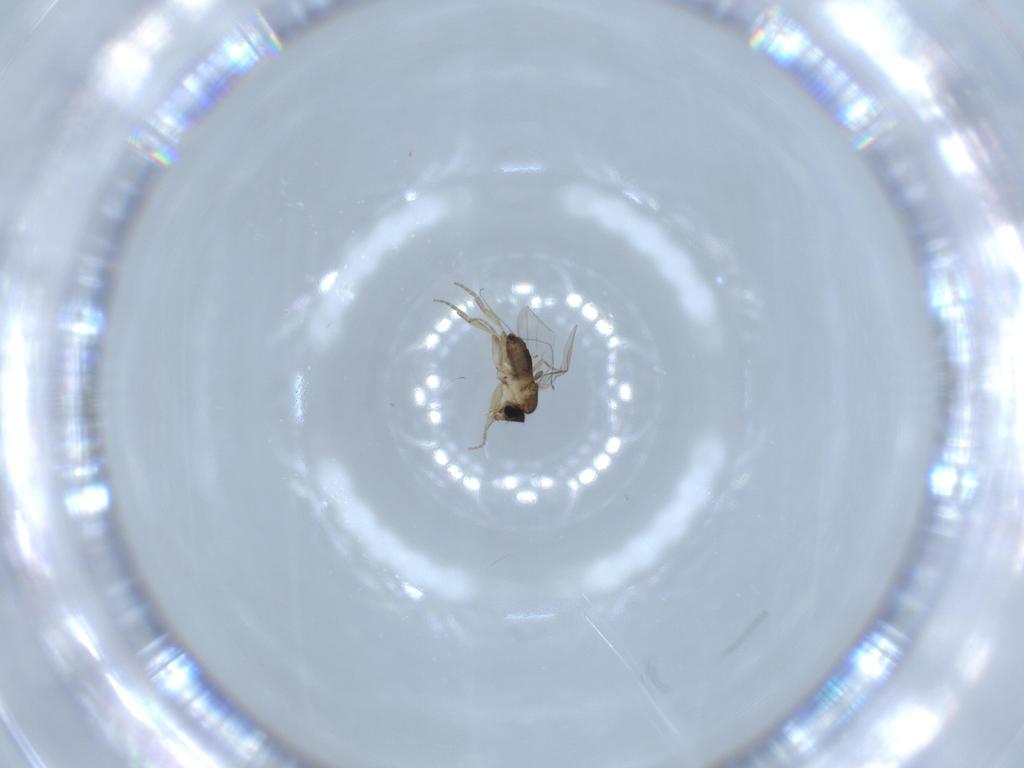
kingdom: Animalia
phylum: Arthropoda
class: Insecta
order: Diptera
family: Phoridae
